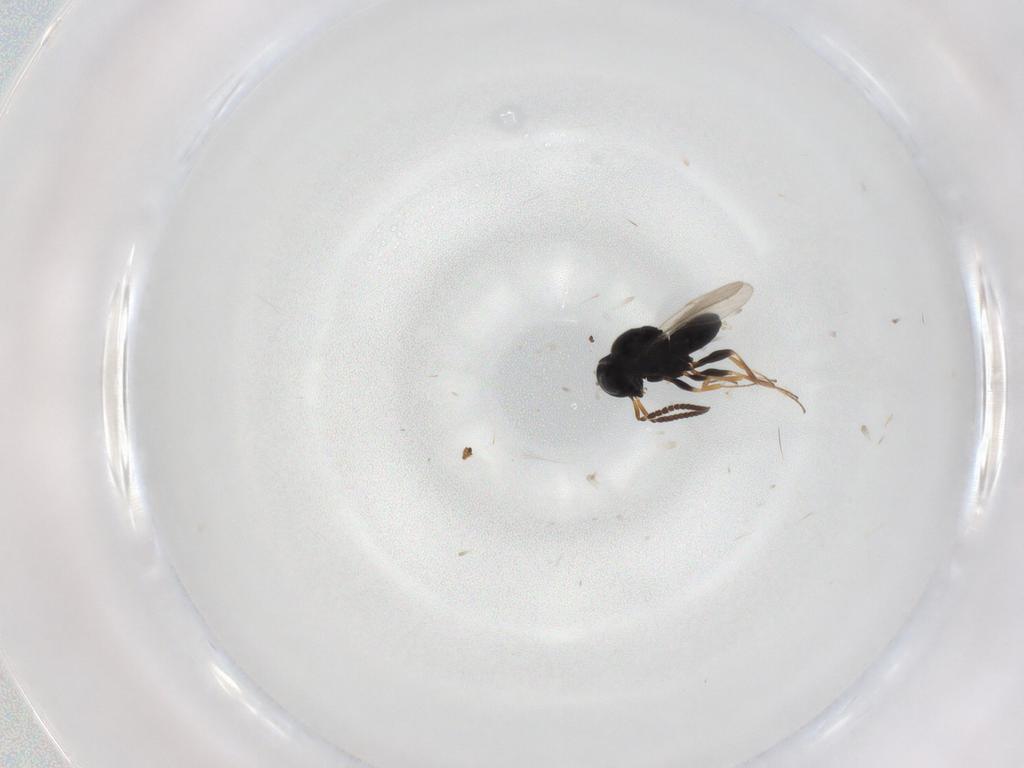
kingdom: Animalia
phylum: Arthropoda
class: Insecta
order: Coleoptera
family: Curculionidae
